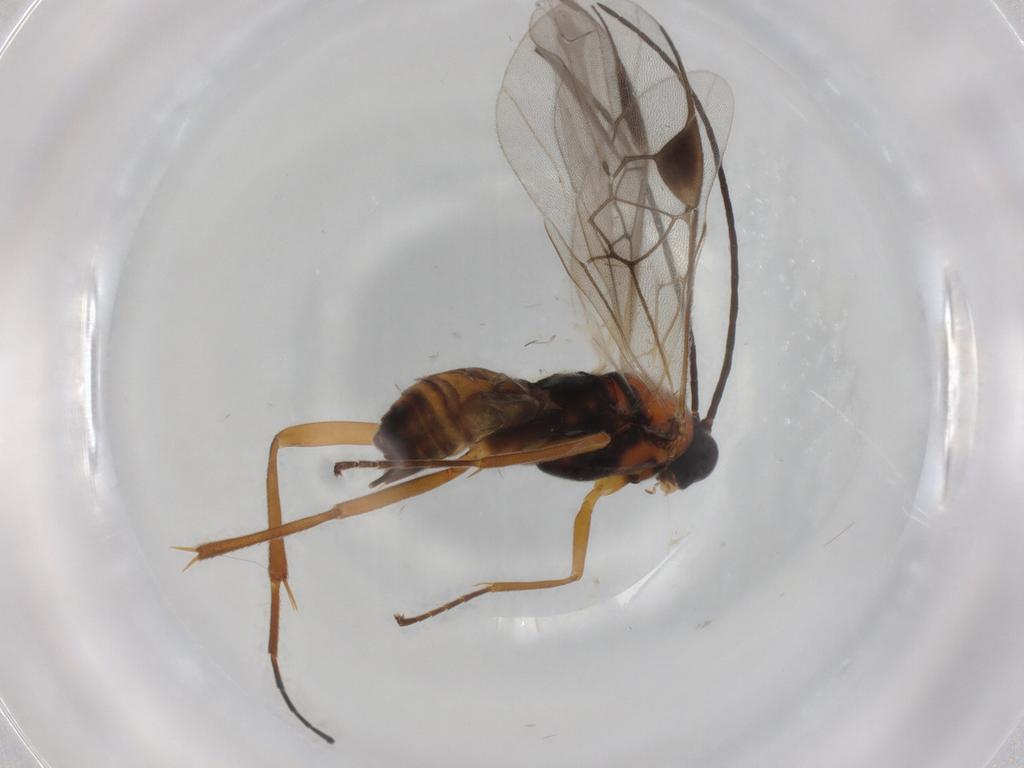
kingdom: Animalia
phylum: Arthropoda
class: Insecta
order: Hymenoptera
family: Braconidae
